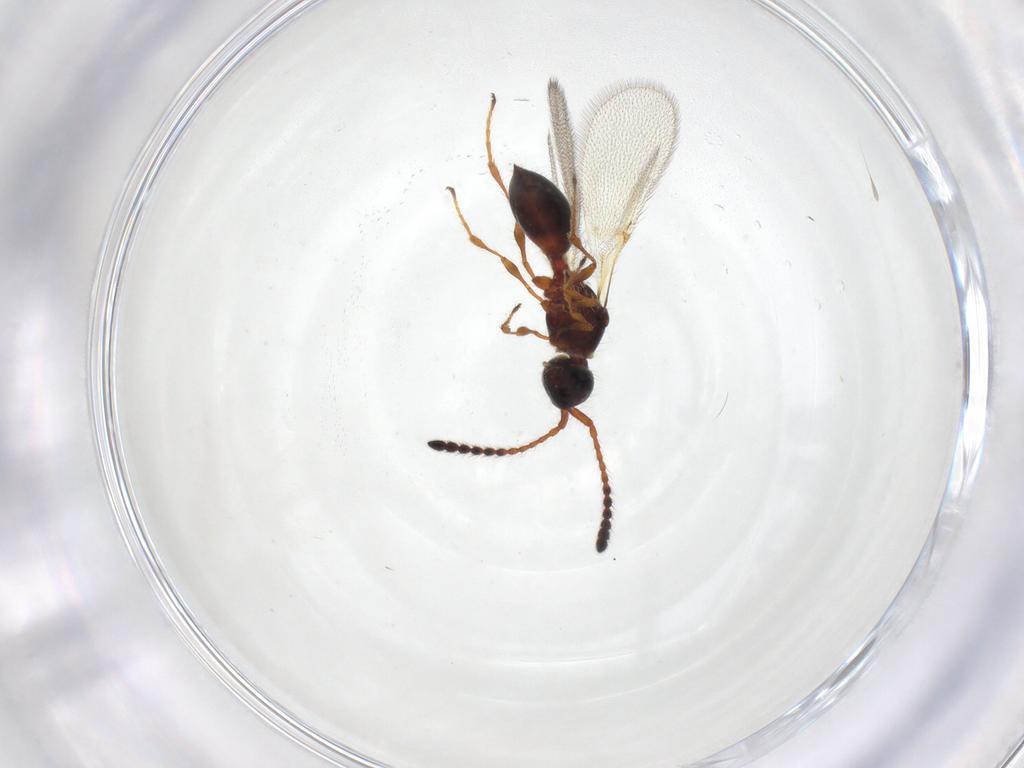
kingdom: Animalia
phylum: Arthropoda
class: Insecta
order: Hymenoptera
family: Diapriidae
